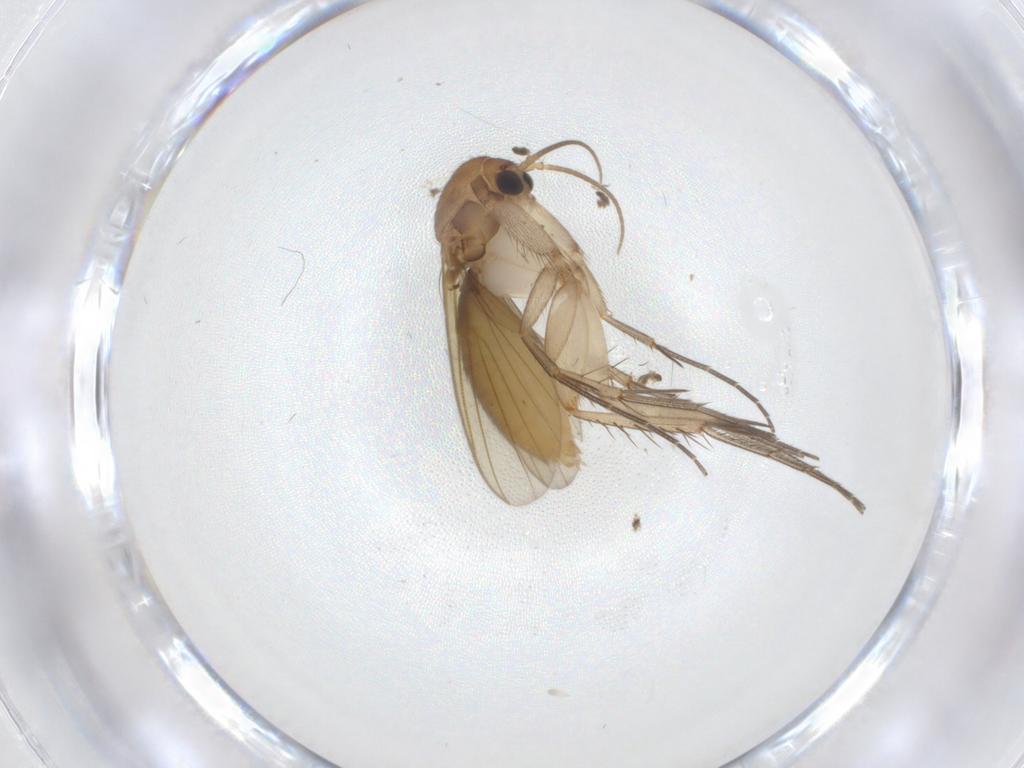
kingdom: Animalia
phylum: Arthropoda
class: Insecta
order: Diptera
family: Mycetophilidae
